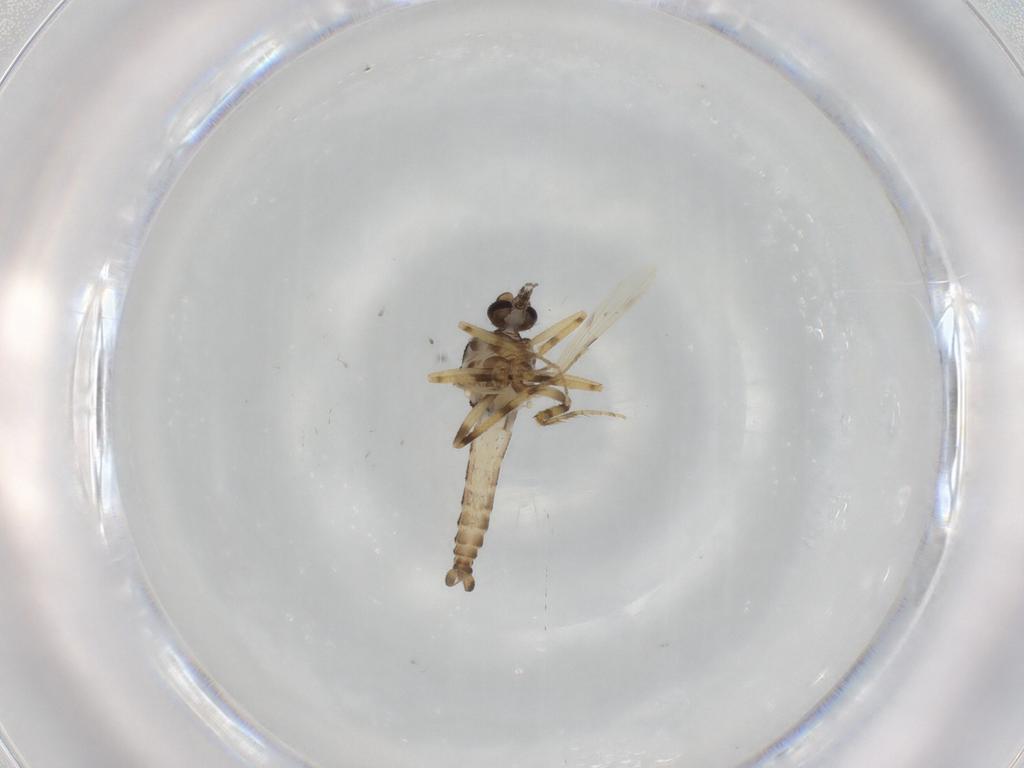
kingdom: Animalia
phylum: Arthropoda
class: Insecta
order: Diptera
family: Ceratopogonidae
